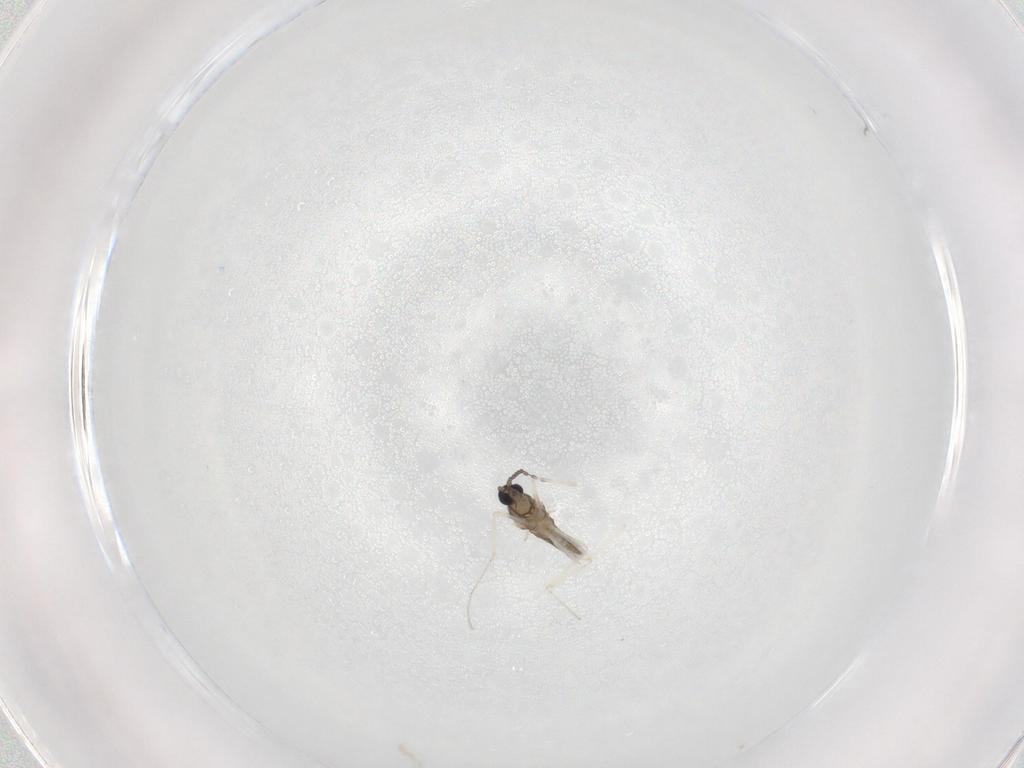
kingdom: Animalia
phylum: Arthropoda
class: Insecta
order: Diptera
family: Cecidomyiidae
